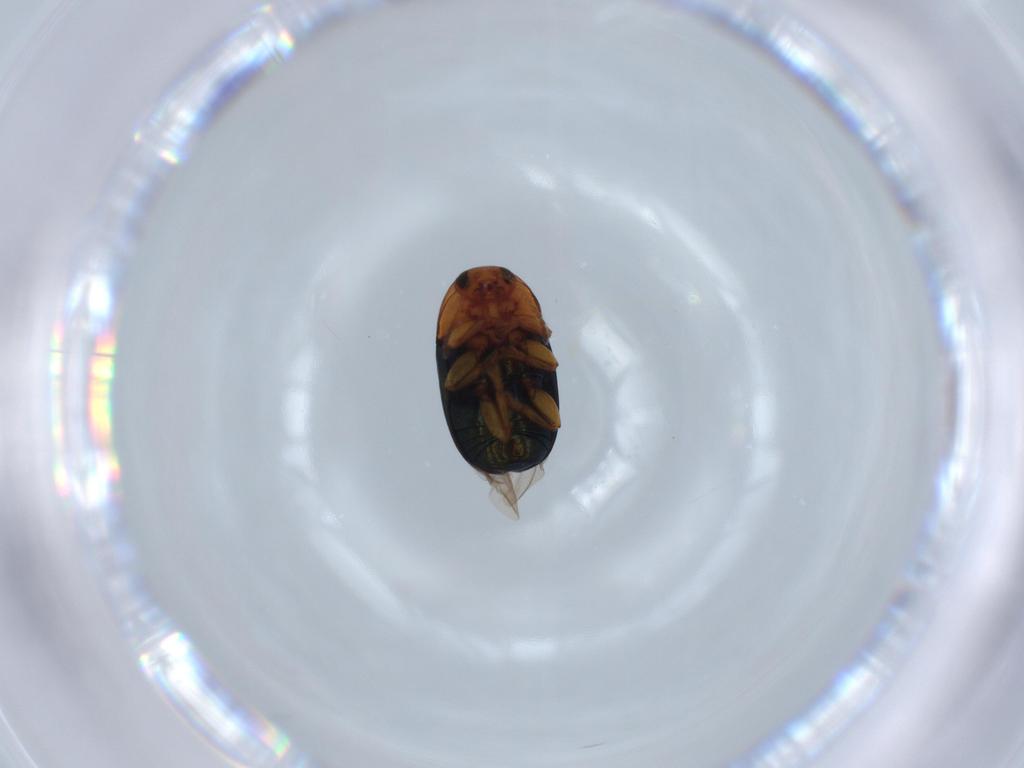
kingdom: Animalia
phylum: Arthropoda
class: Insecta
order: Coleoptera
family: Chrysomelidae
